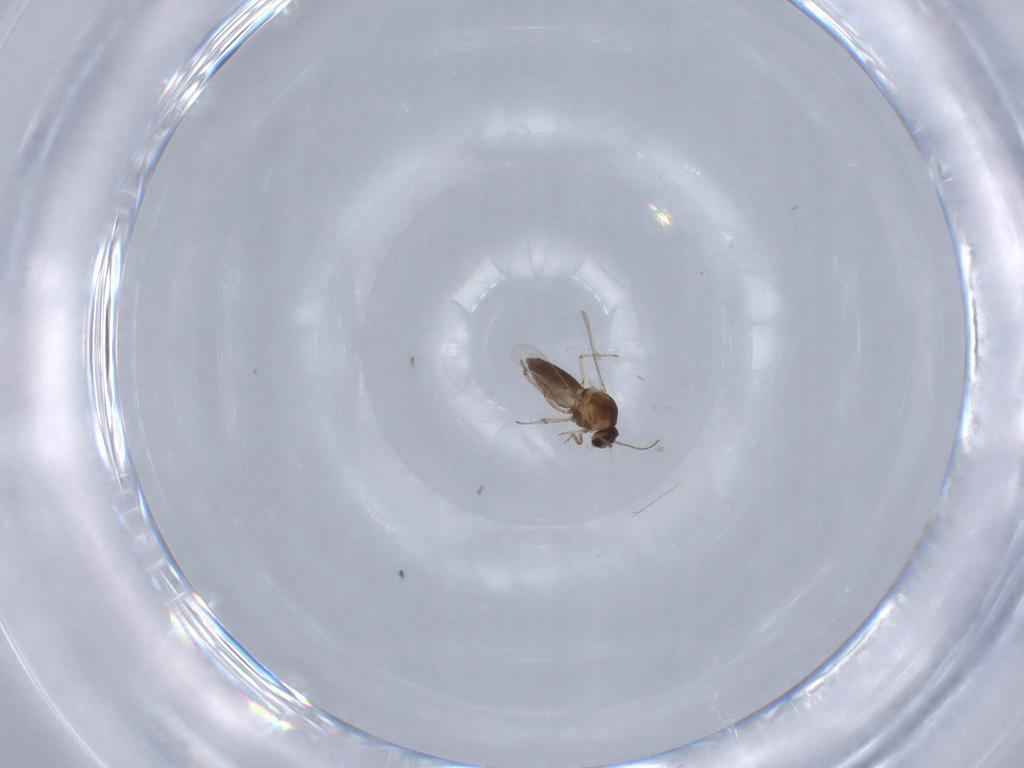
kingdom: Animalia
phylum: Arthropoda
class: Insecta
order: Diptera
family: Ceratopogonidae
